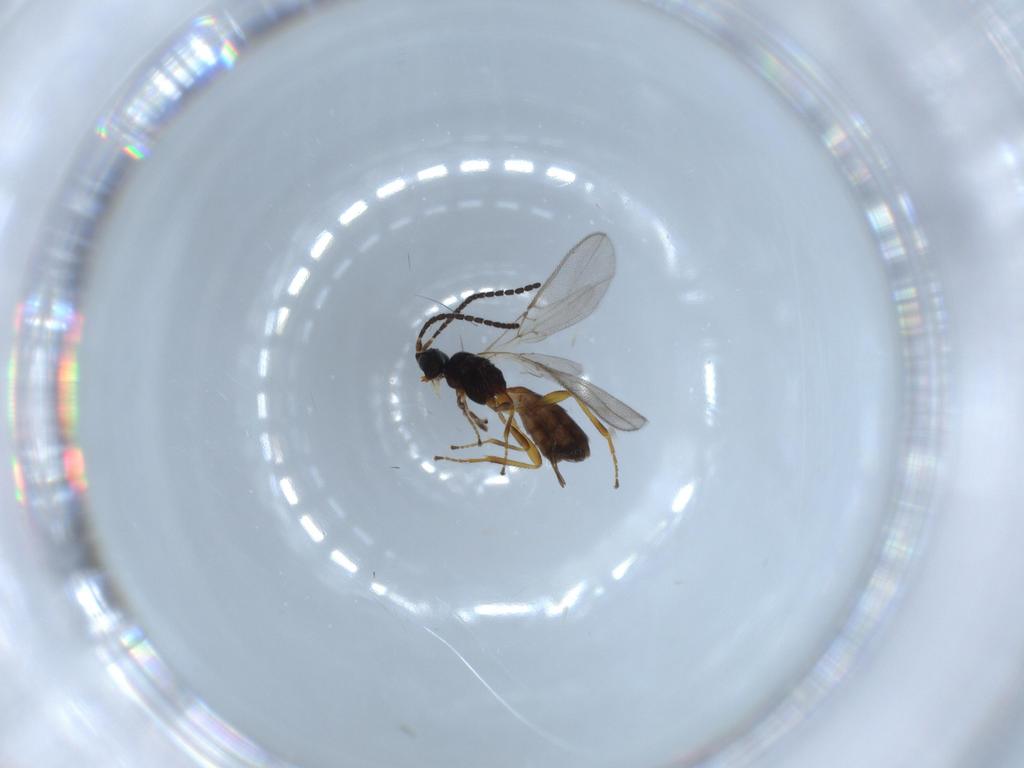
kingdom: Animalia
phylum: Arthropoda
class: Insecta
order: Hymenoptera
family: Braconidae
